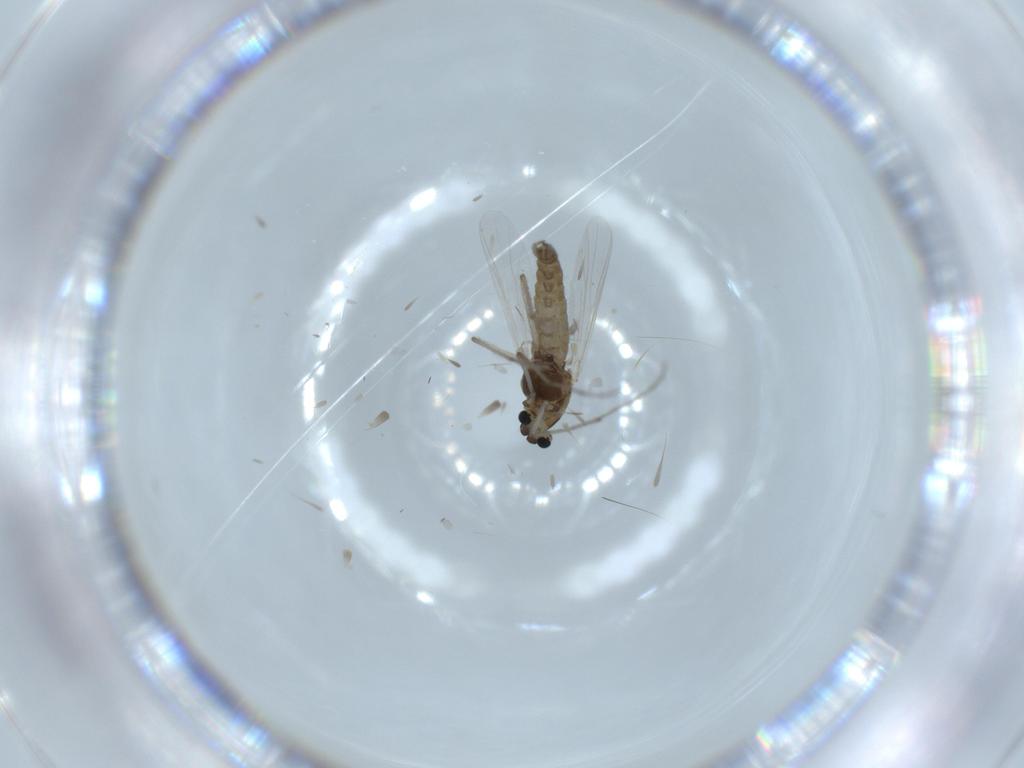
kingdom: Animalia
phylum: Arthropoda
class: Insecta
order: Diptera
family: Chironomidae
